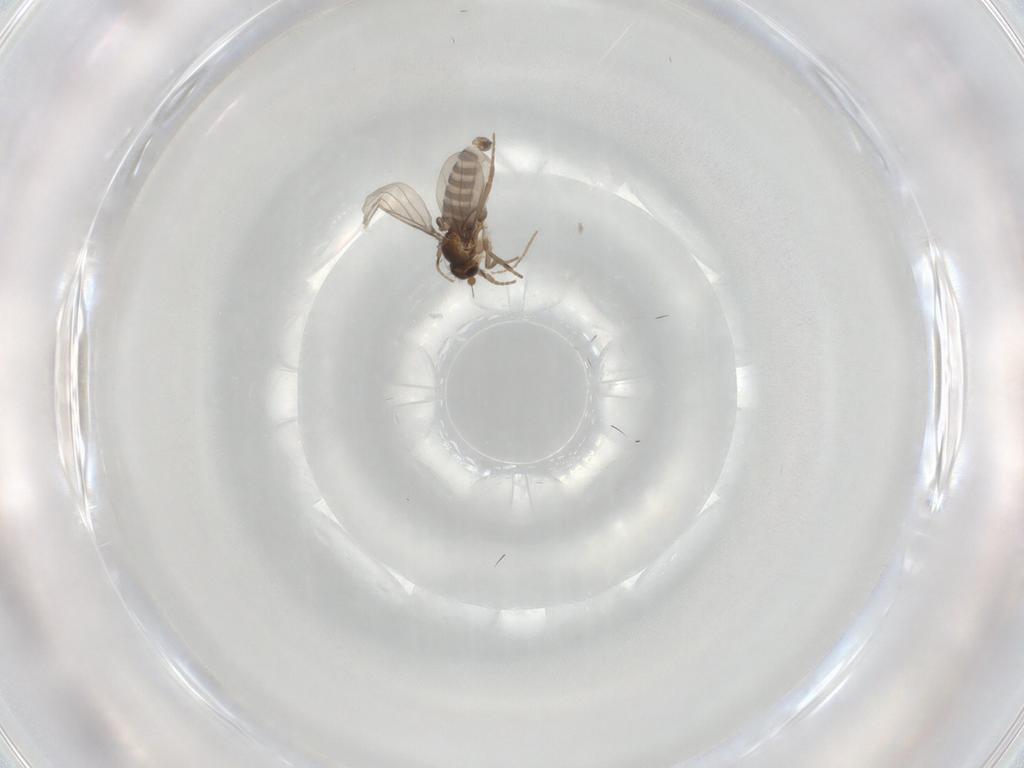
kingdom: Animalia
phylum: Arthropoda
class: Insecta
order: Diptera
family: Phoridae
